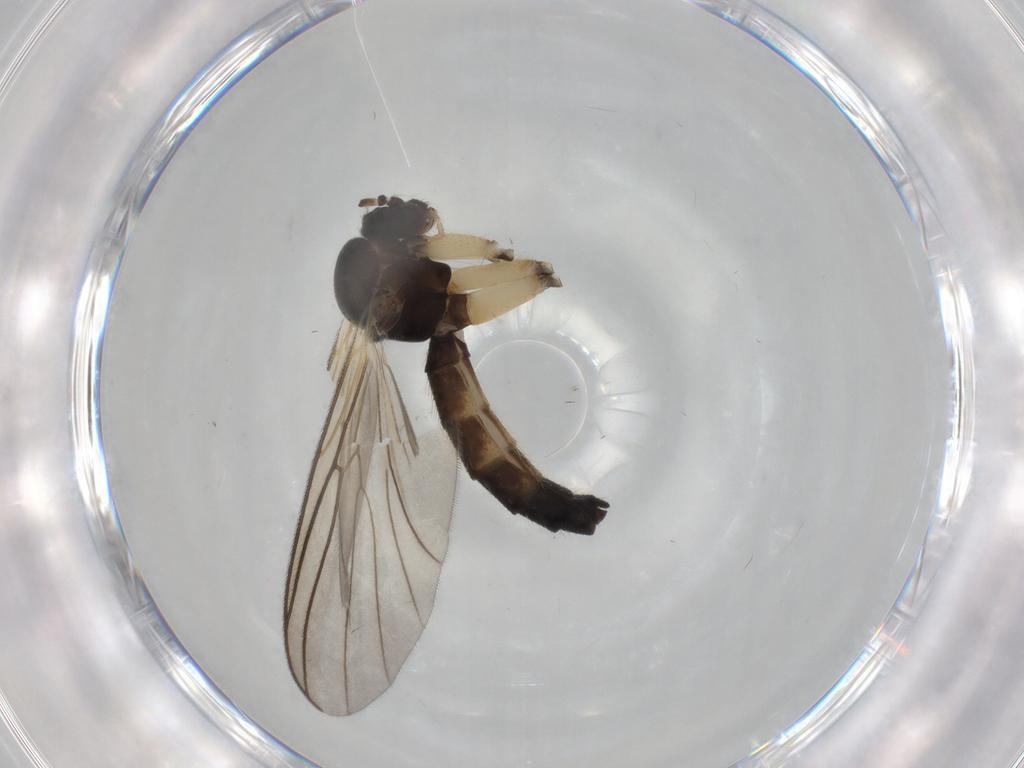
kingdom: Animalia
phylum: Arthropoda
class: Insecta
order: Diptera
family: Mycetophilidae
